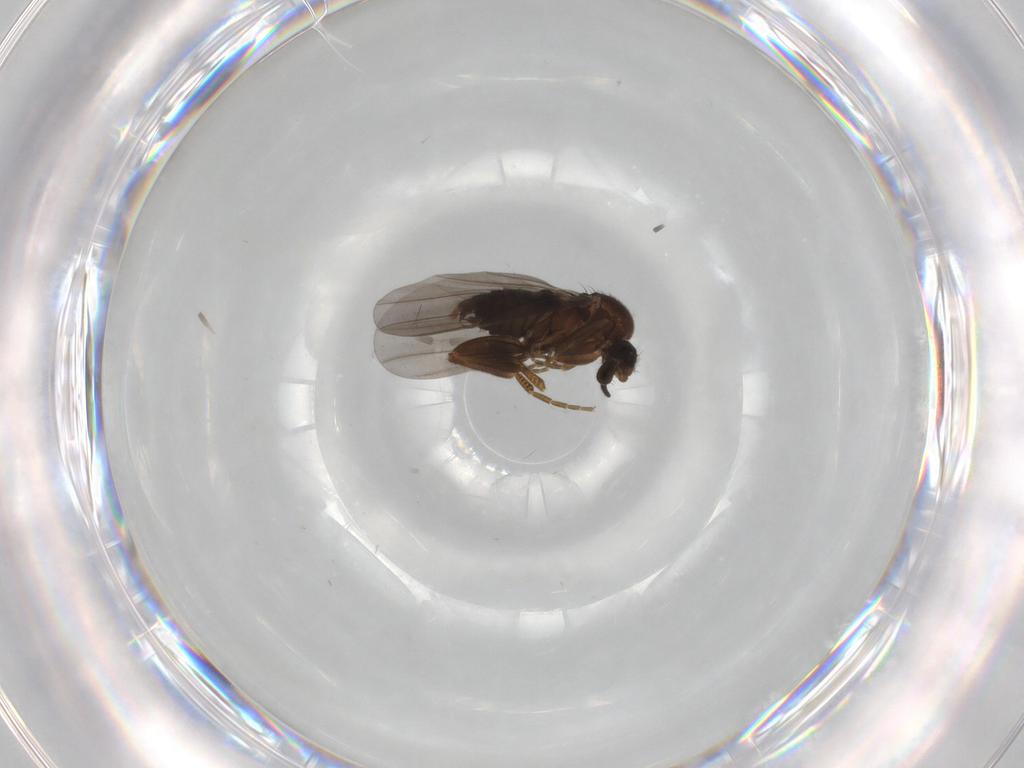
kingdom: Animalia
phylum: Arthropoda
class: Insecta
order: Diptera
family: Phoridae
